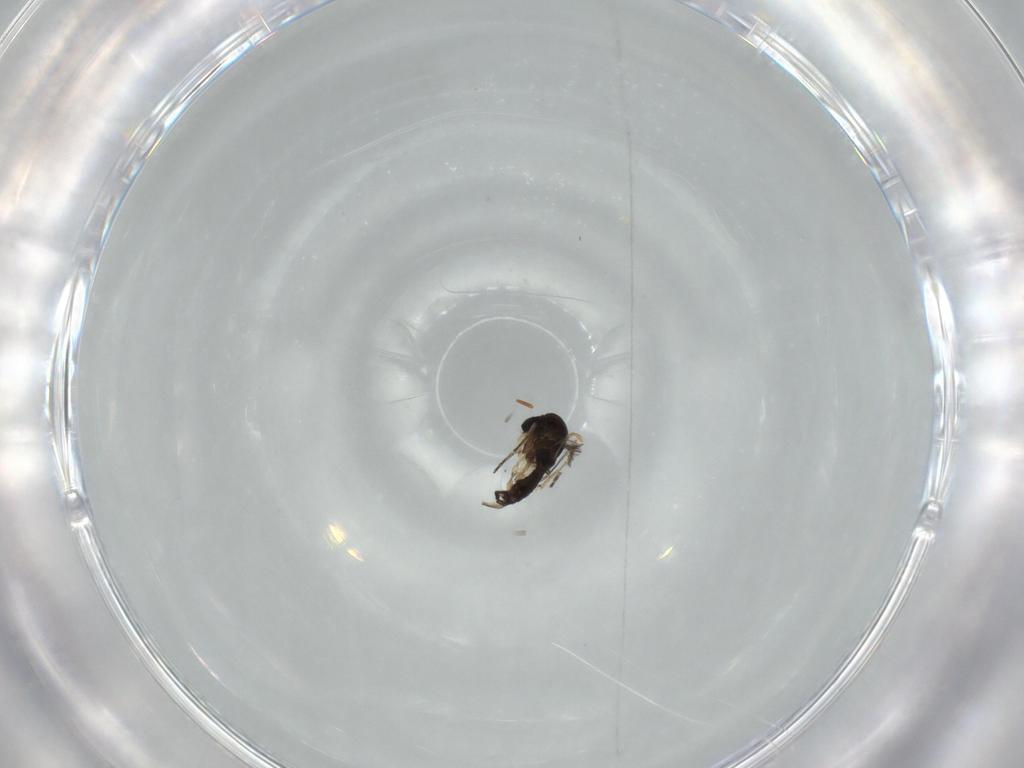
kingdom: Animalia
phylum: Arthropoda
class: Insecta
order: Diptera
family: Sciaridae
